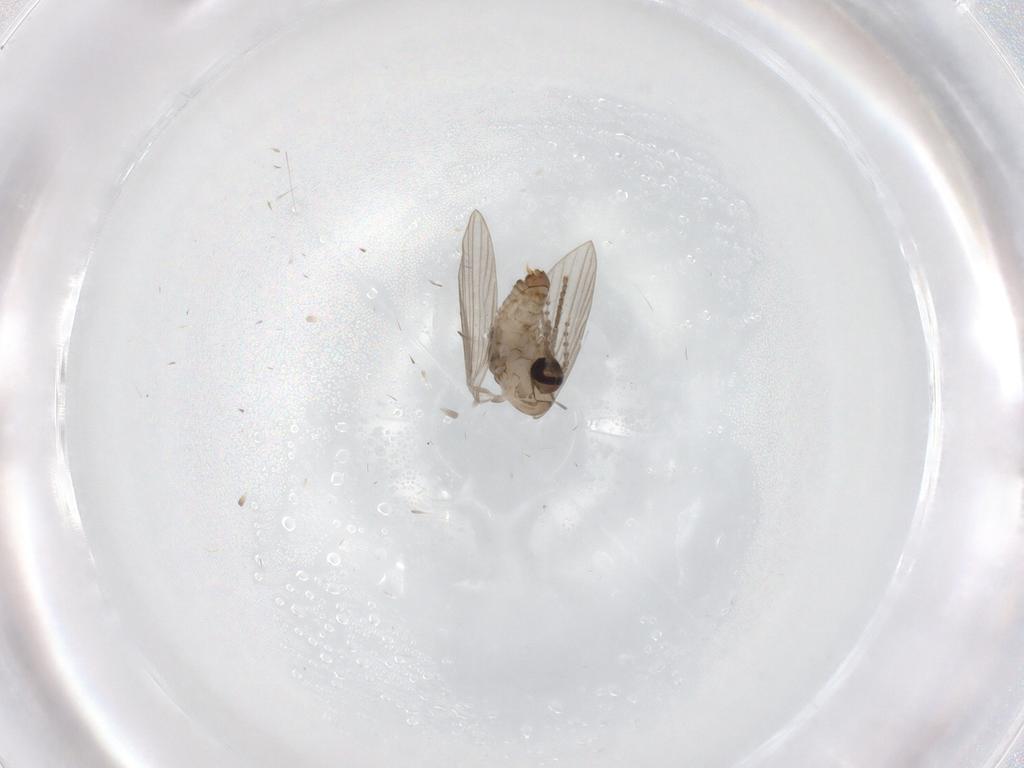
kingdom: Animalia
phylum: Arthropoda
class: Insecta
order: Diptera
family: Psychodidae
